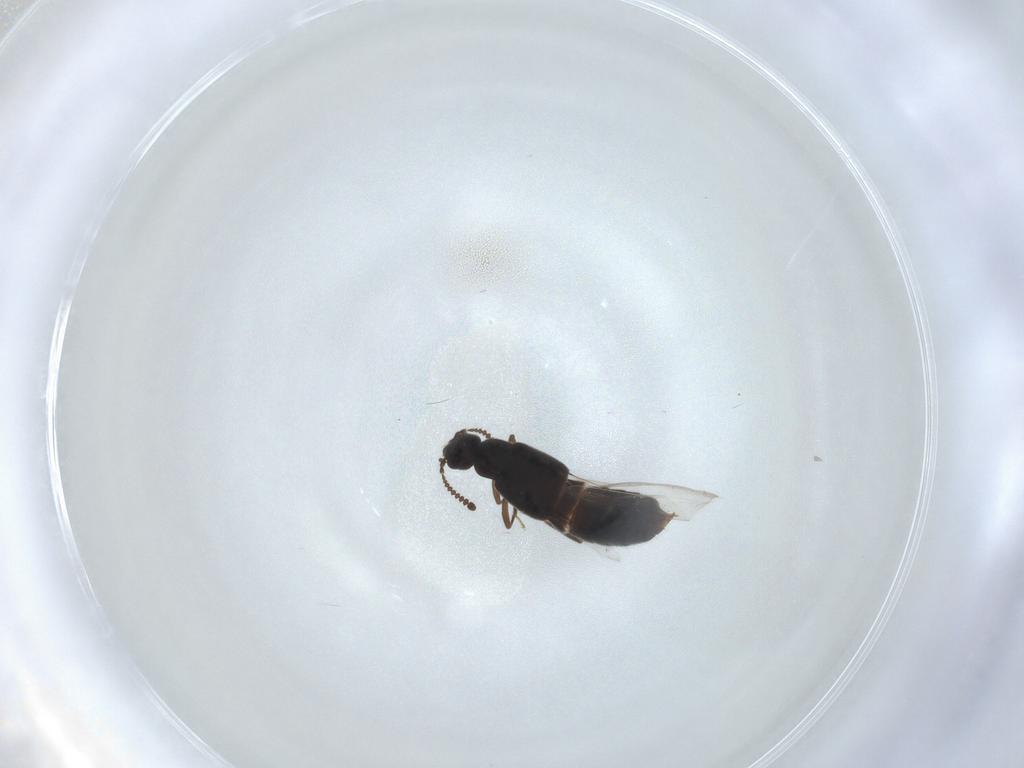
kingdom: Animalia
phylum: Arthropoda
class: Insecta
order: Coleoptera
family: Staphylinidae
